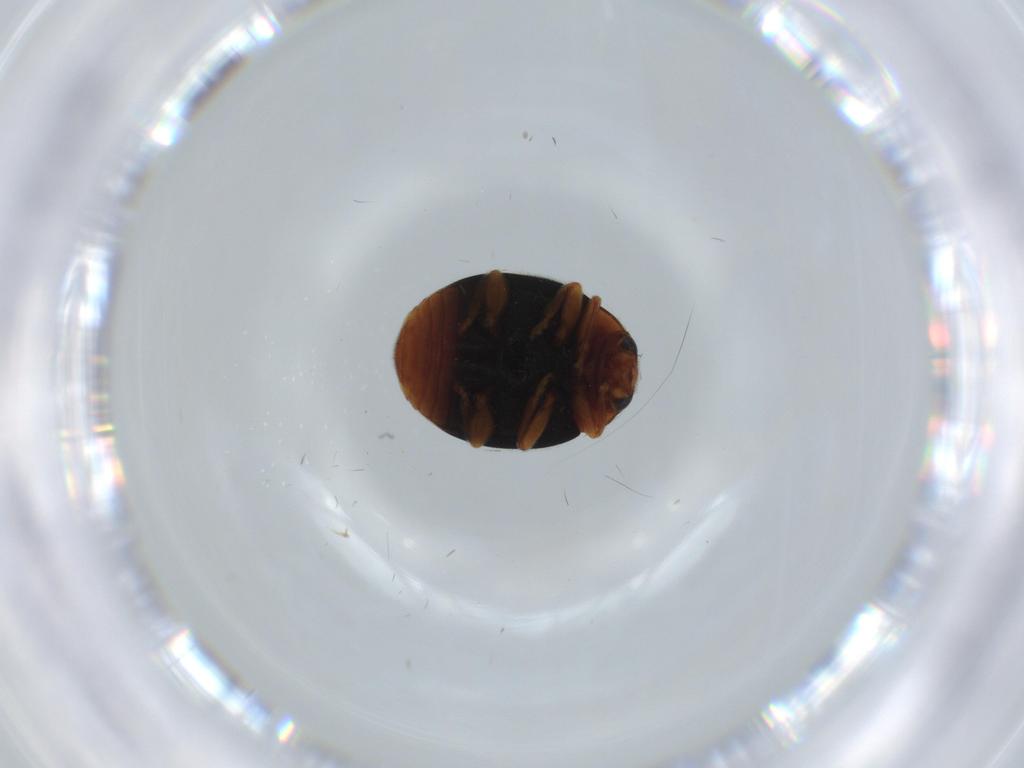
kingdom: Animalia
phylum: Arthropoda
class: Insecta
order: Coleoptera
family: Coccinellidae
